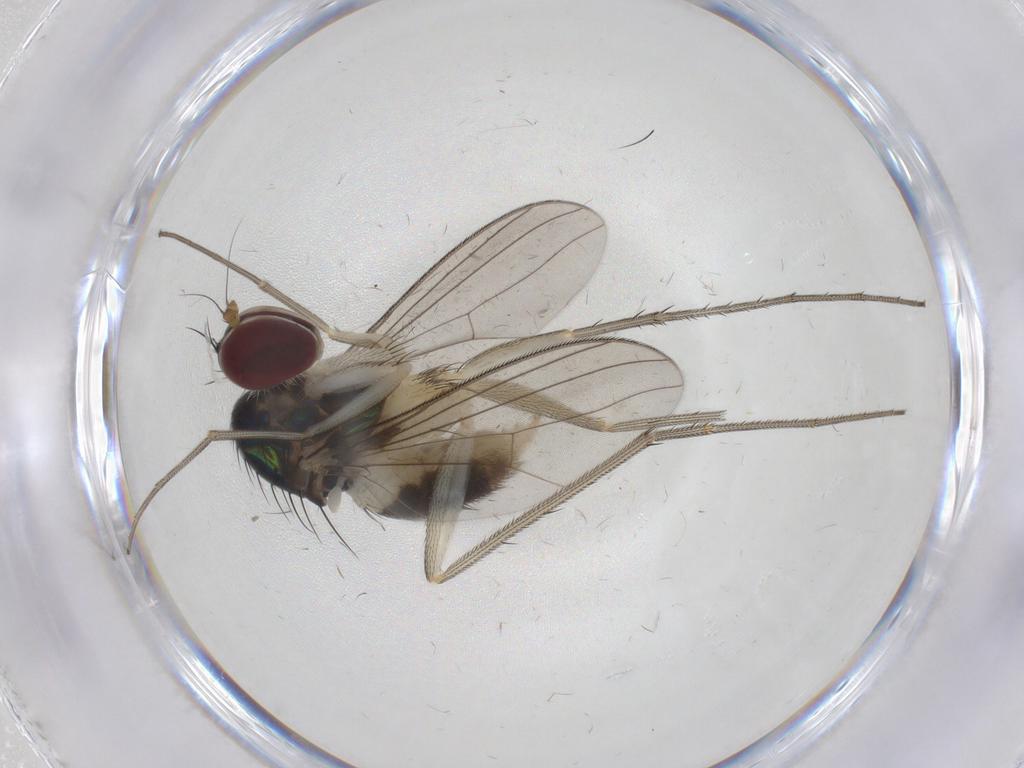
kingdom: Animalia
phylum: Arthropoda
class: Insecta
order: Diptera
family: Dolichopodidae
